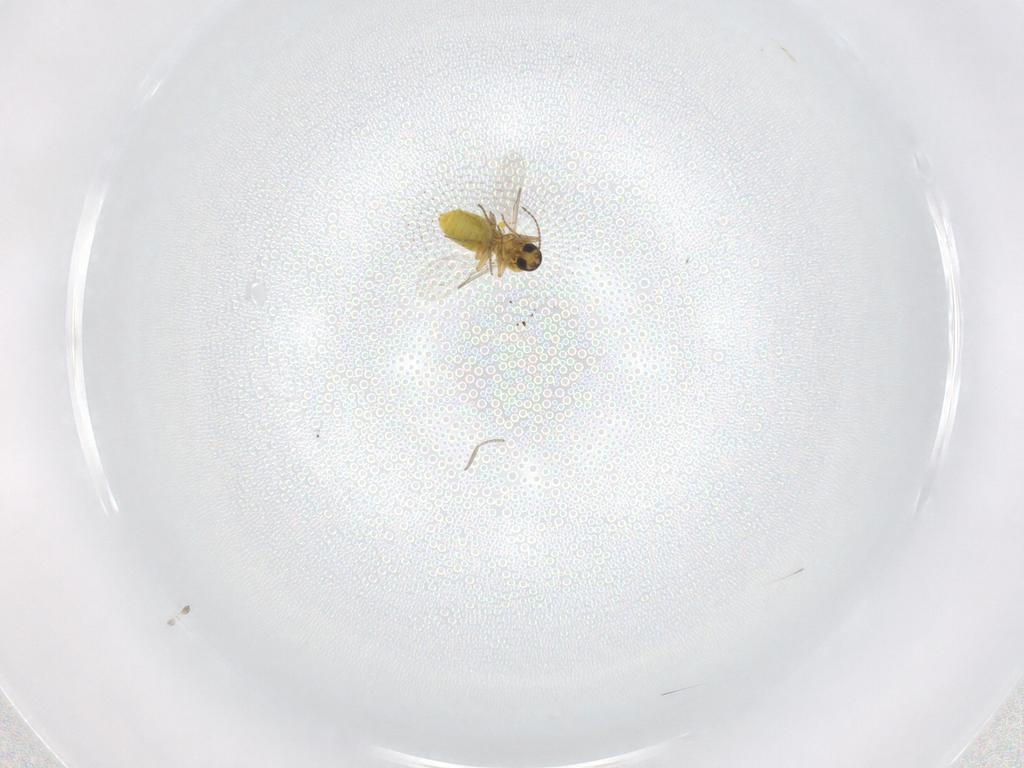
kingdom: Animalia
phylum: Arthropoda
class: Insecta
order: Diptera
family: Ceratopogonidae
